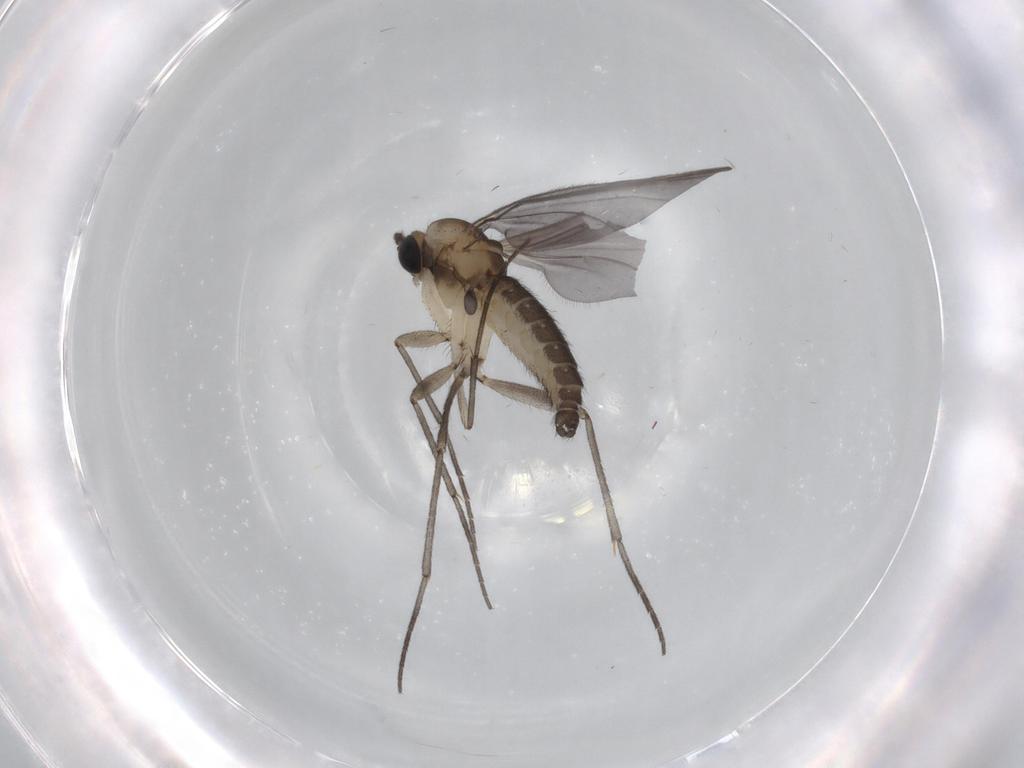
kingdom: Animalia
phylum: Arthropoda
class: Insecta
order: Diptera
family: Sciaridae
